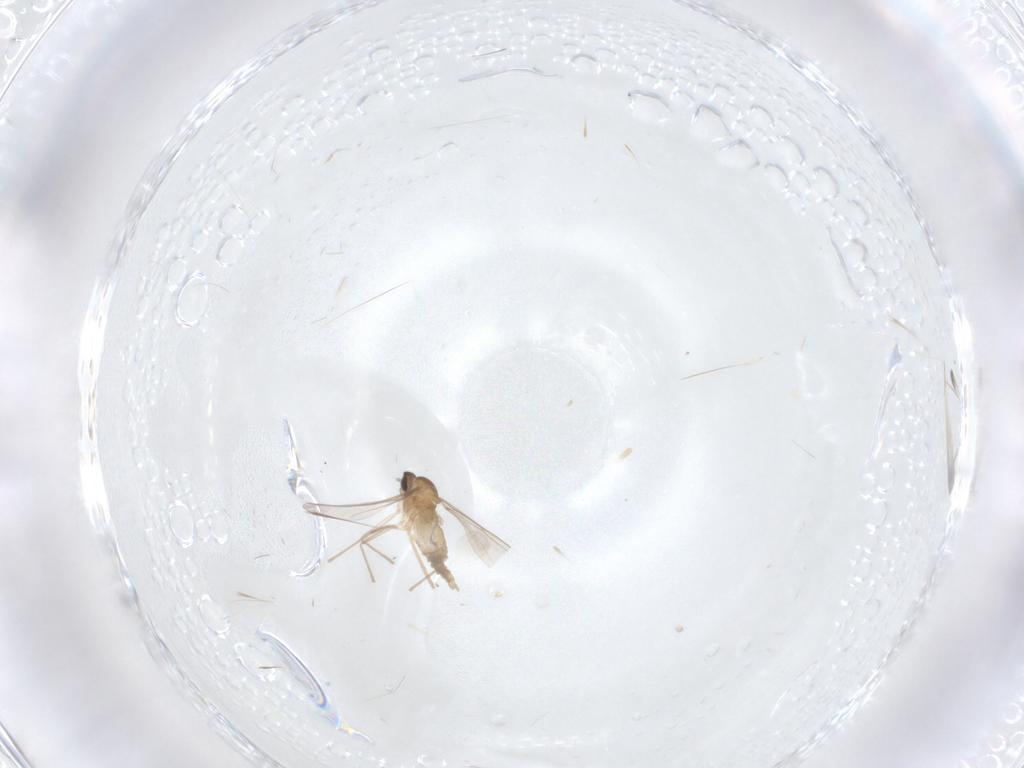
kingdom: Animalia
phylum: Arthropoda
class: Insecta
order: Diptera
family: Cecidomyiidae
